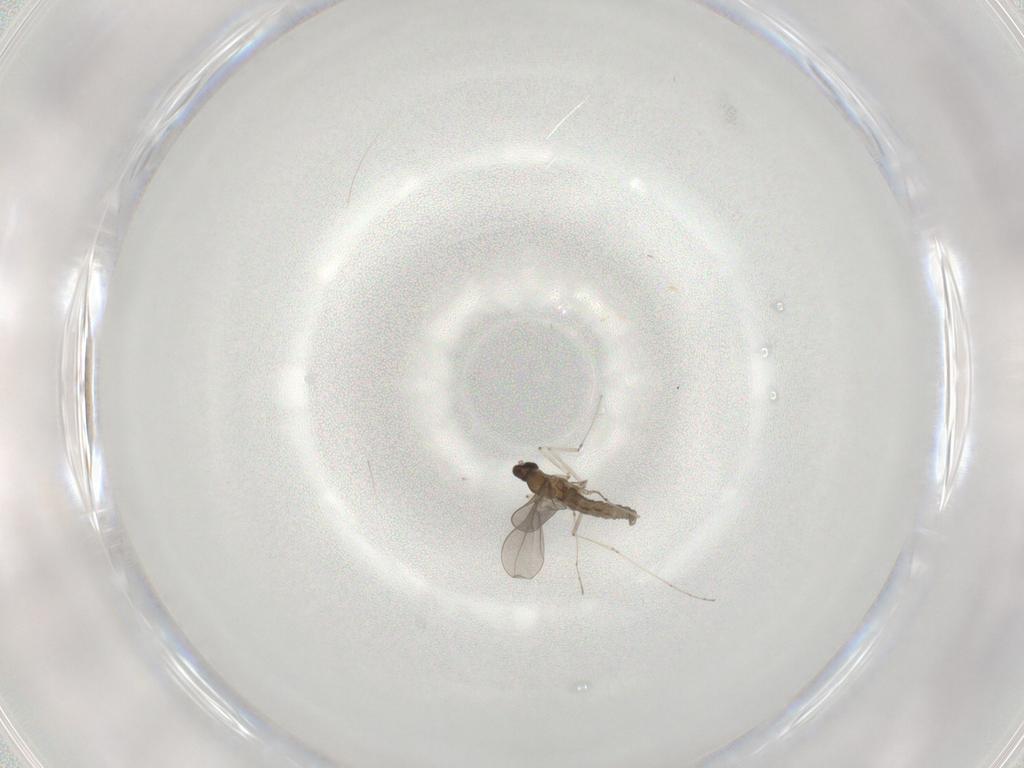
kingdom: Animalia
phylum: Arthropoda
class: Insecta
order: Diptera
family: Cecidomyiidae
